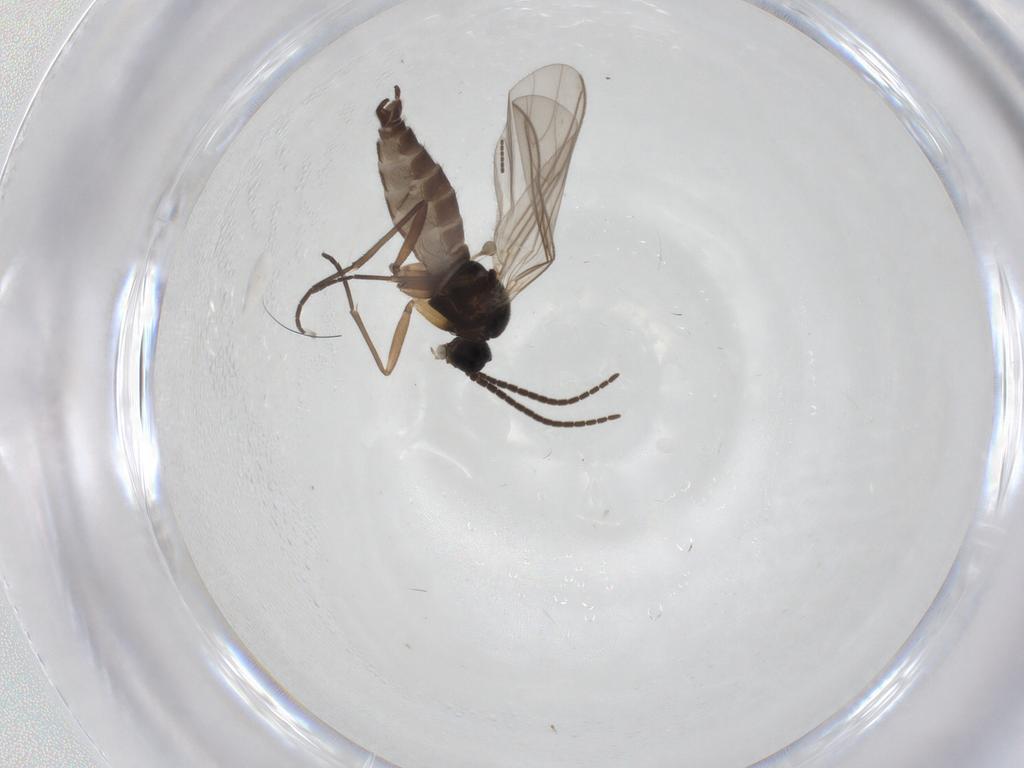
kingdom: Animalia
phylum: Arthropoda
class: Insecta
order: Diptera
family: Sciaridae
